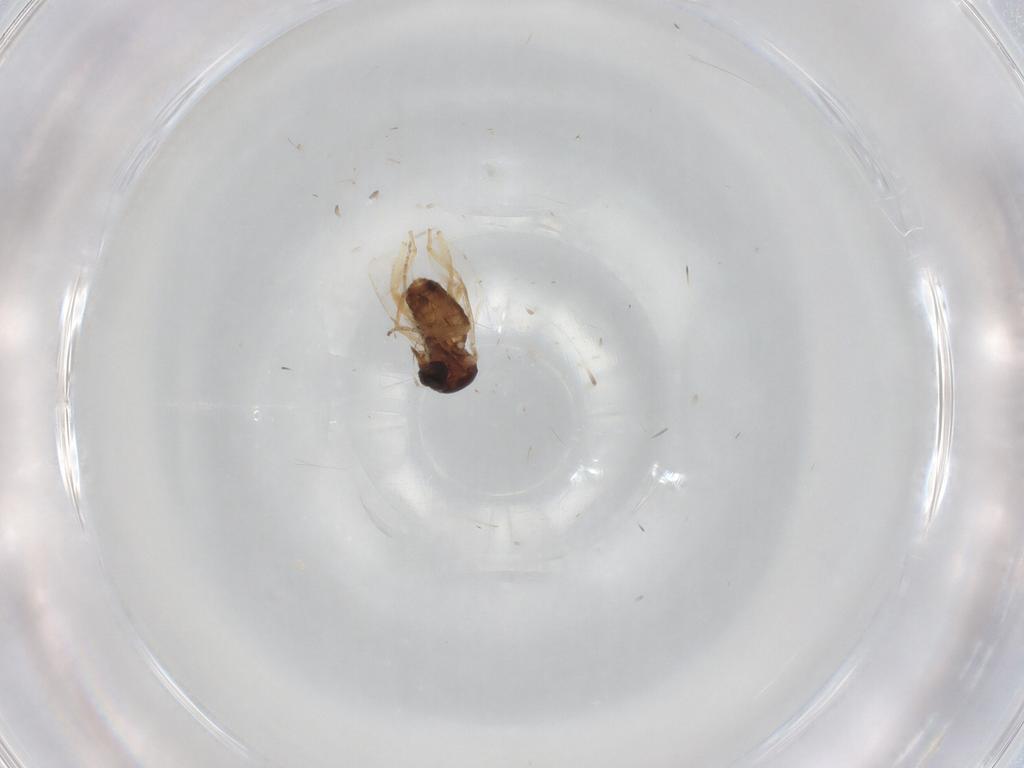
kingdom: Animalia
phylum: Arthropoda
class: Insecta
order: Diptera
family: Ceratopogonidae
